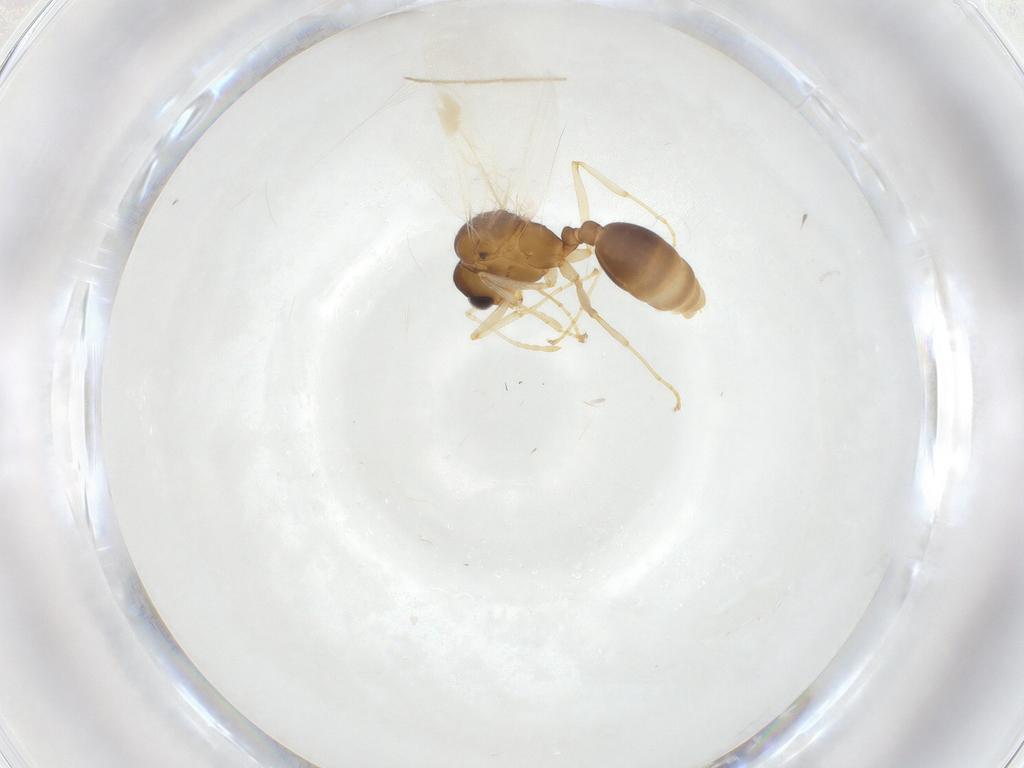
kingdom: Animalia
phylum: Arthropoda
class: Insecta
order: Hymenoptera
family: Formicidae
